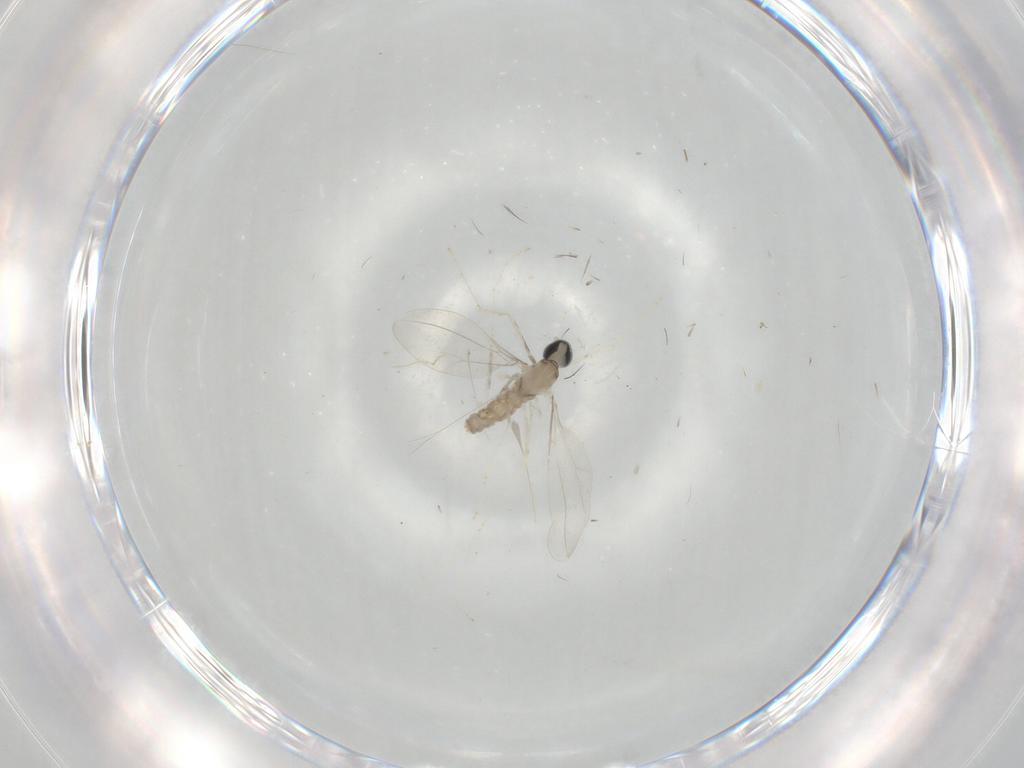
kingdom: Animalia
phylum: Arthropoda
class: Insecta
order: Diptera
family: Cecidomyiidae
